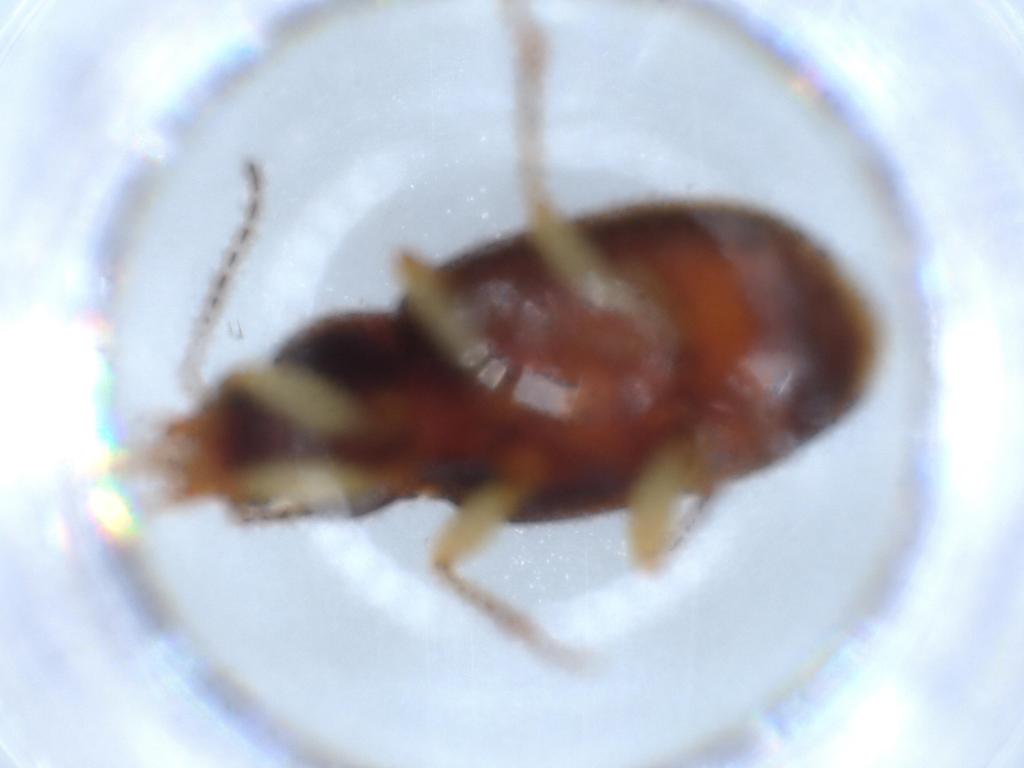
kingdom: Animalia
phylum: Arthropoda
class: Insecta
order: Coleoptera
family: Carabidae
